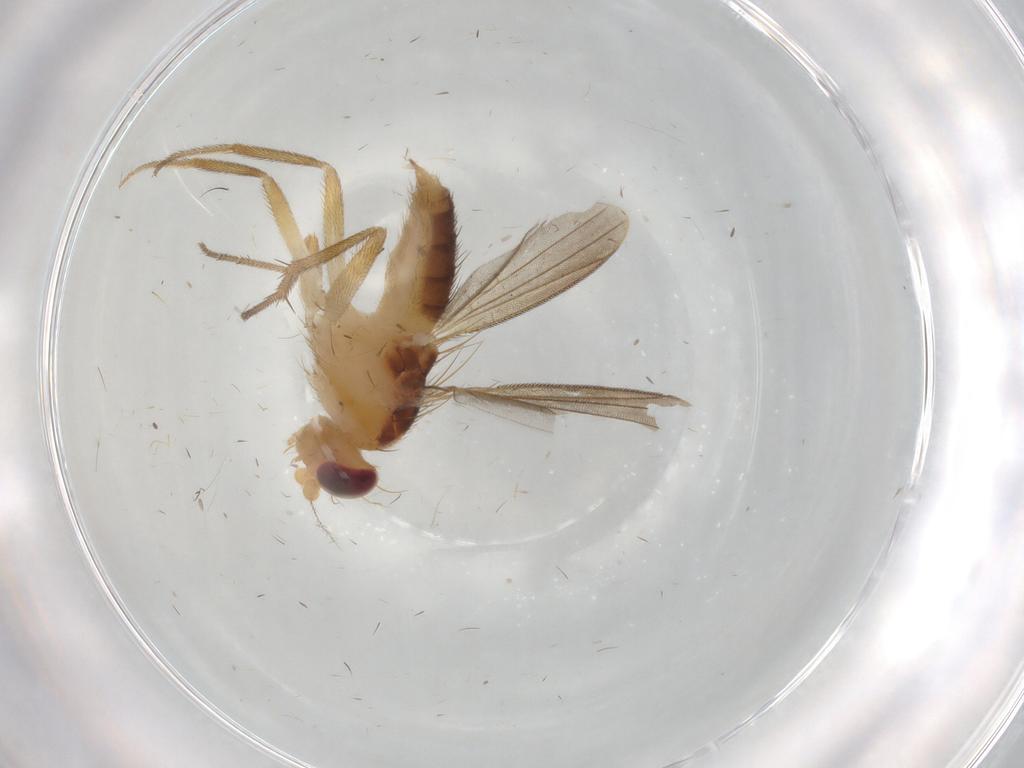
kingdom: Animalia
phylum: Arthropoda
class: Insecta
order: Diptera
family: Agromyzidae
